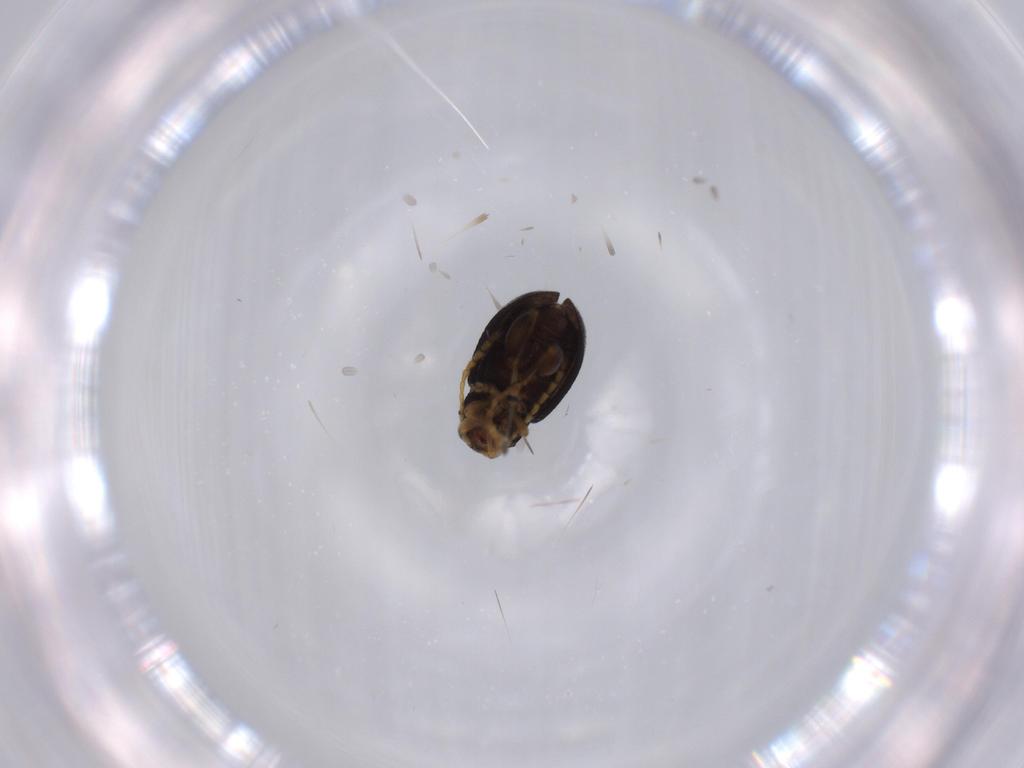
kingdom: Animalia
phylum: Arthropoda
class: Insecta
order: Coleoptera
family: Chrysomelidae
